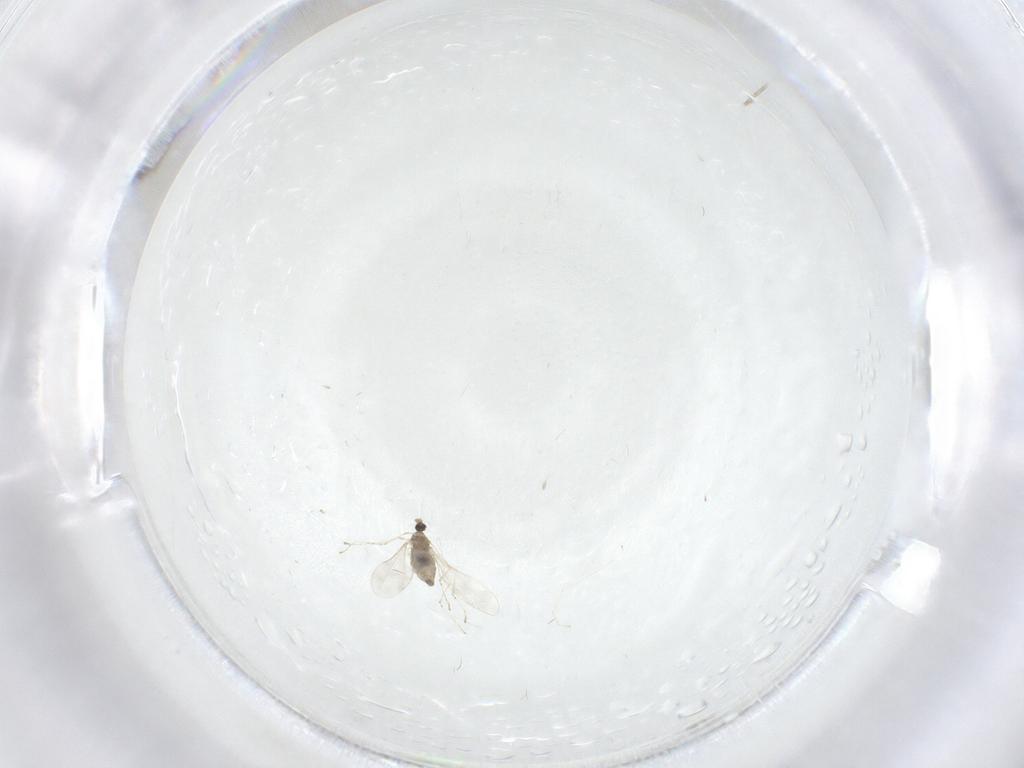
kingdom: Animalia
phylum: Arthropoda
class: Insecta
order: Diptera
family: Cecidomyiidae
